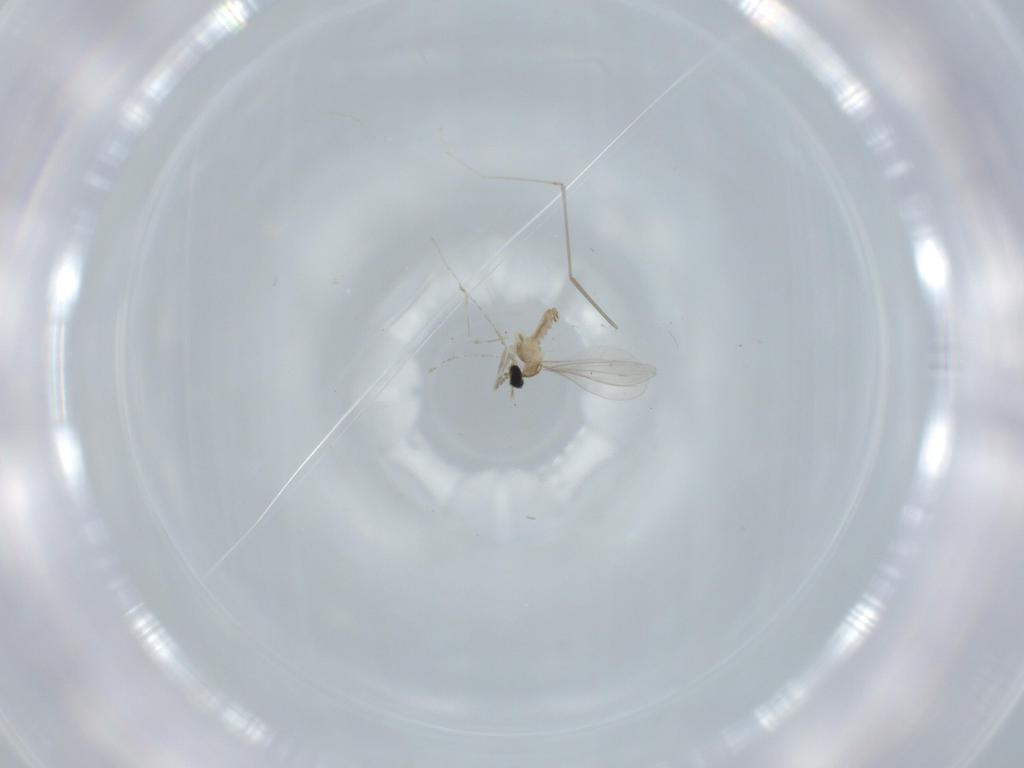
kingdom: Animalia
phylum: Arthropoda
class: Insecta
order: Diptera
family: Cecidomyiidae
